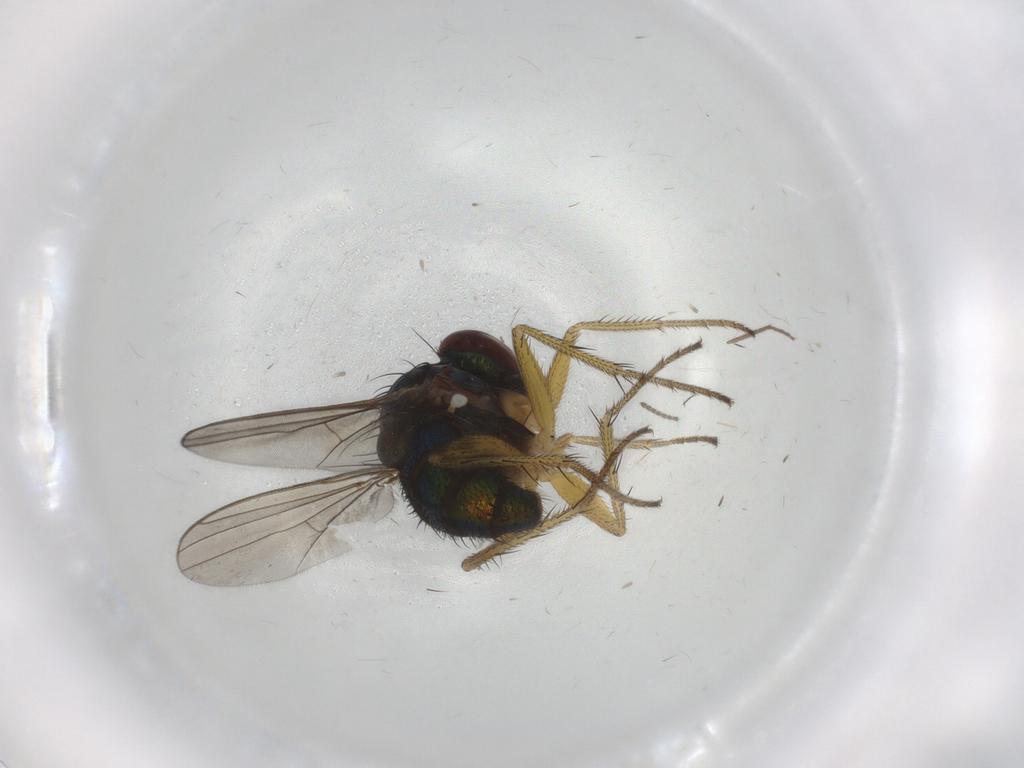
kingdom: Animalia
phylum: Arthropoda
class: Insecta
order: Diptera
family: Dolichopodidae
